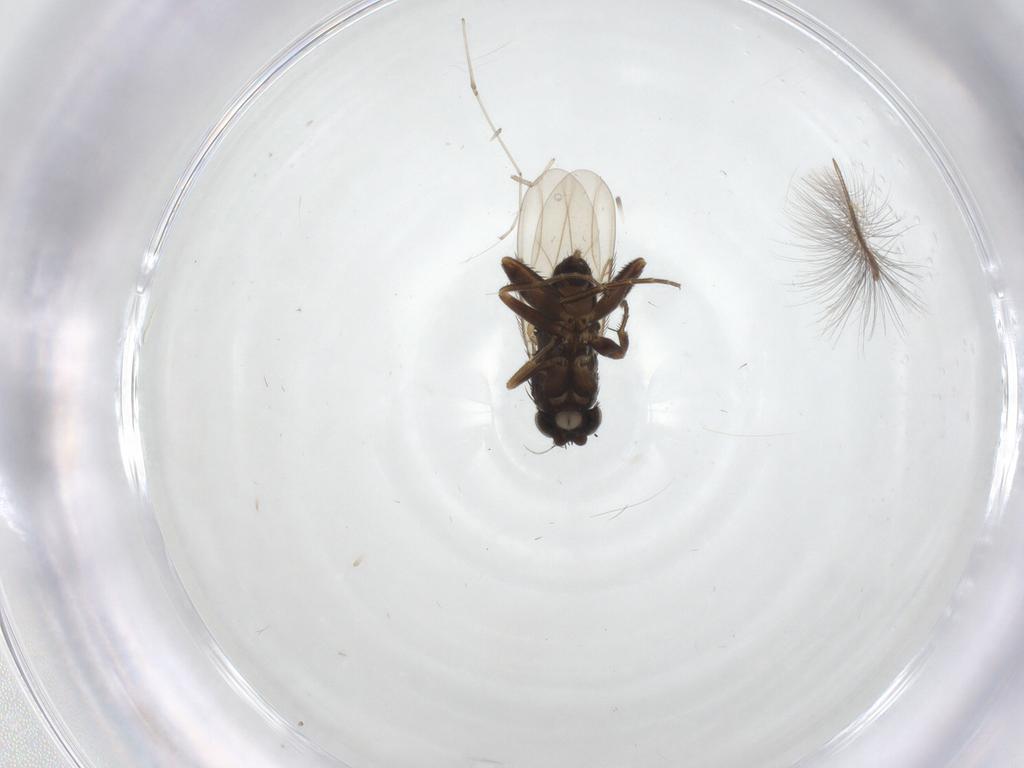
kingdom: Animalia
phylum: Arthropoda
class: Insecta
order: Diptera
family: Phoridae
